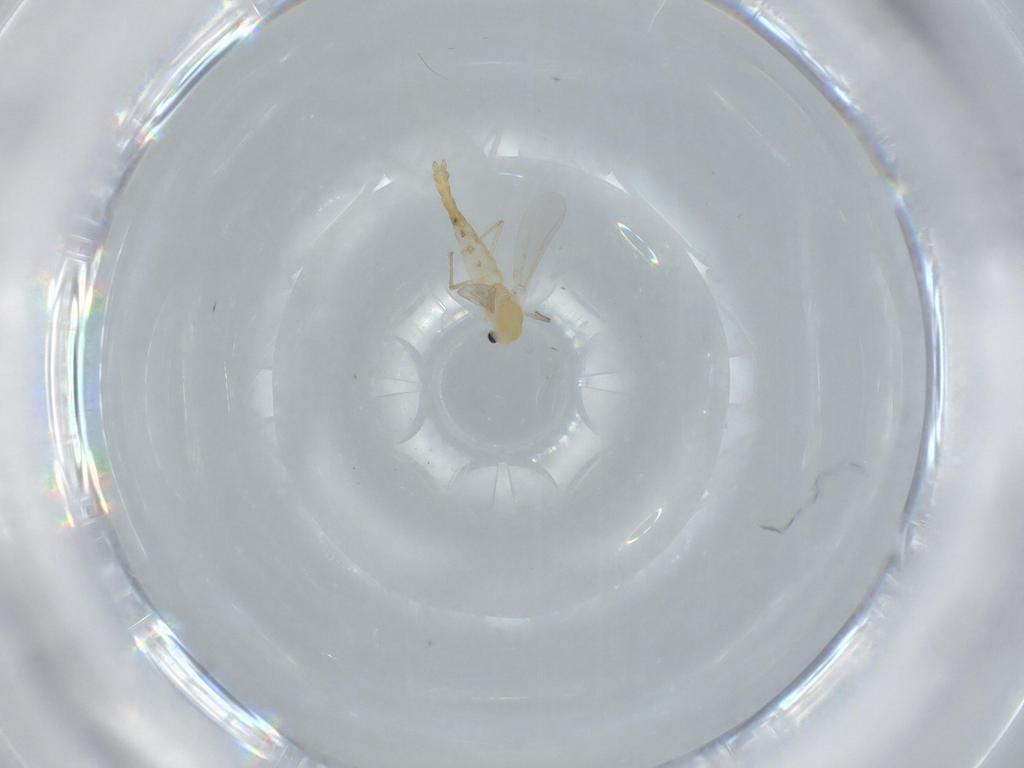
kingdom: Animalia
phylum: Arthropoda
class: Insecta
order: Diptera
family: Chironomidae
